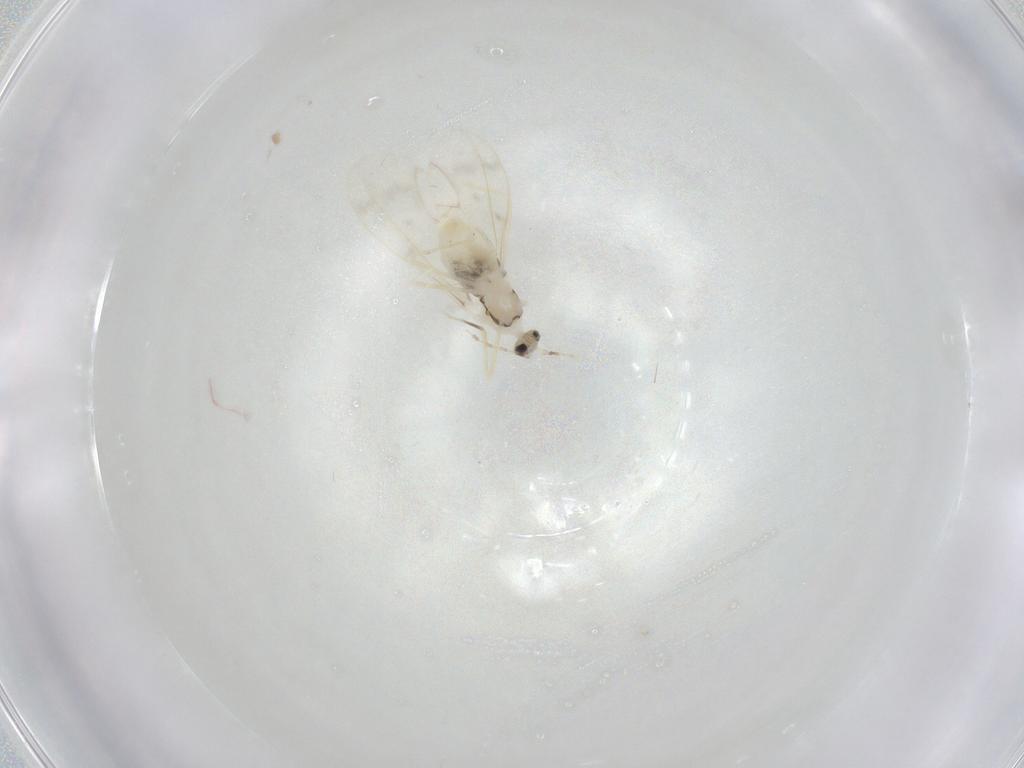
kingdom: Animalia
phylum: Arthropoda
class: Insecta
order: Diptera
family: Cecidomyiidae
